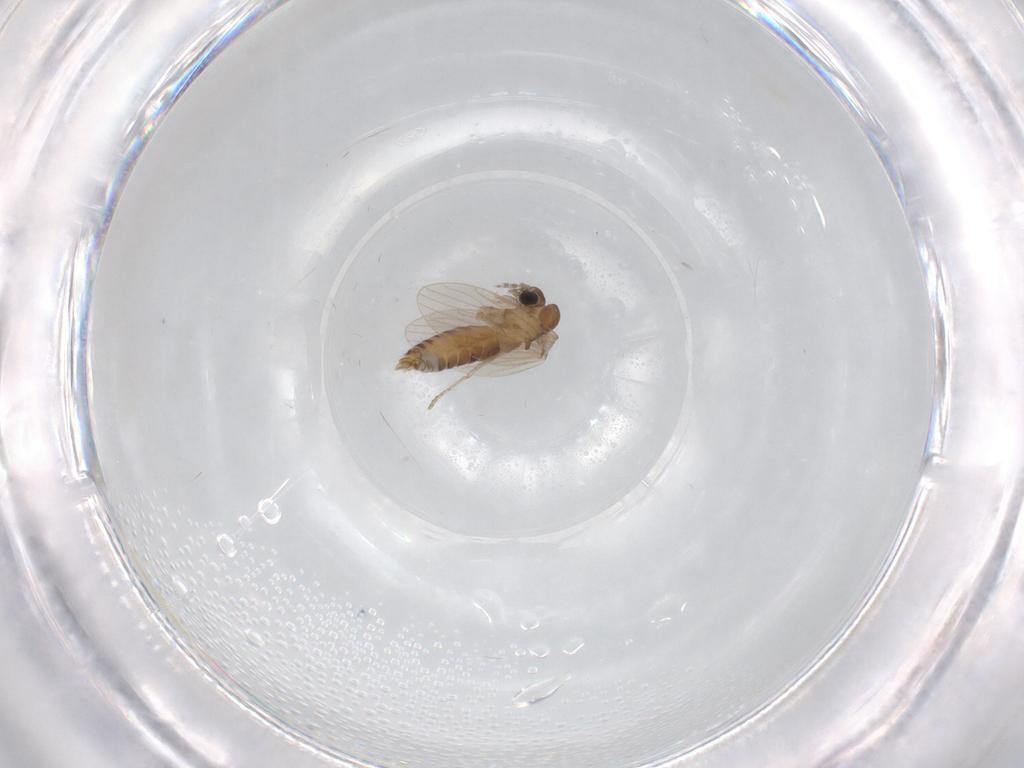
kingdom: Animalia
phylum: Arthropoda
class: Insecta
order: Diptera
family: Psychodidae
